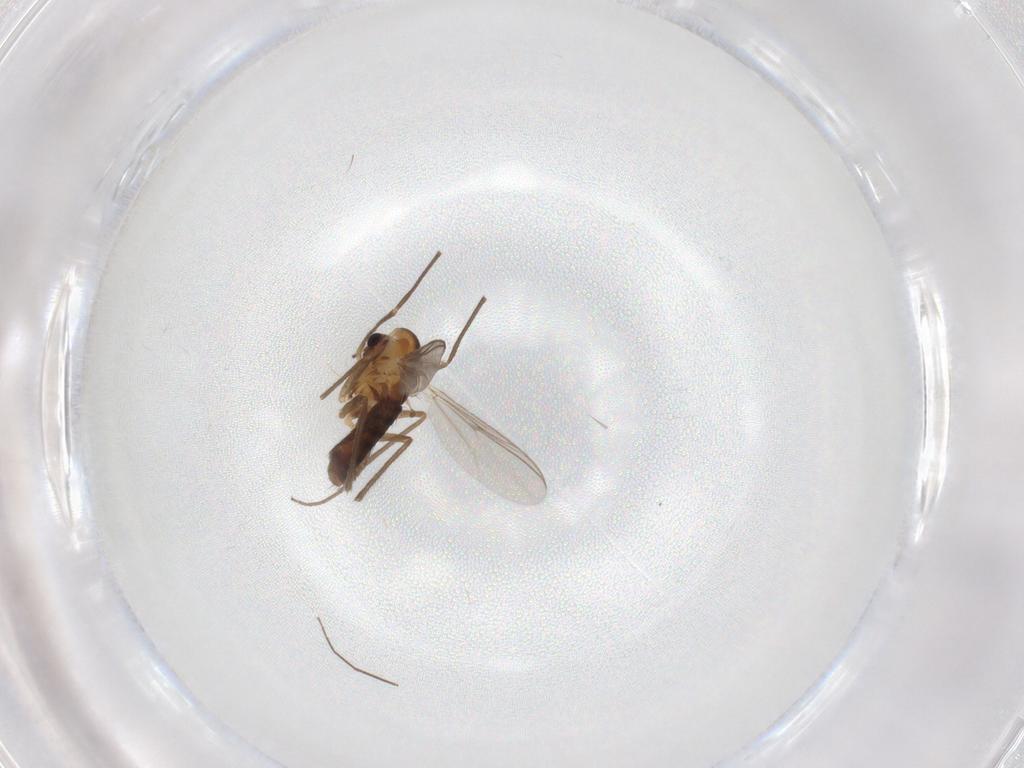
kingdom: Animalia
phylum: Arthropoda
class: Insecta
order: Diptera
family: Chironomidae
